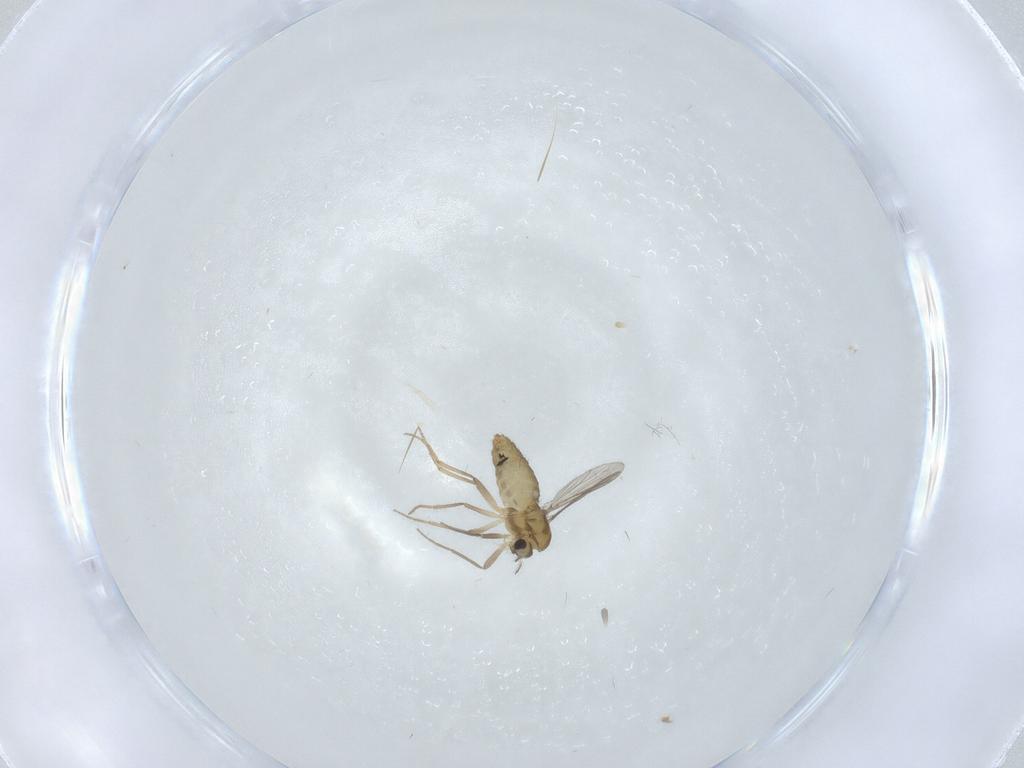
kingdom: Animalia
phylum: Arthropoda
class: Insecta
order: Diptera
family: Chironomidae
